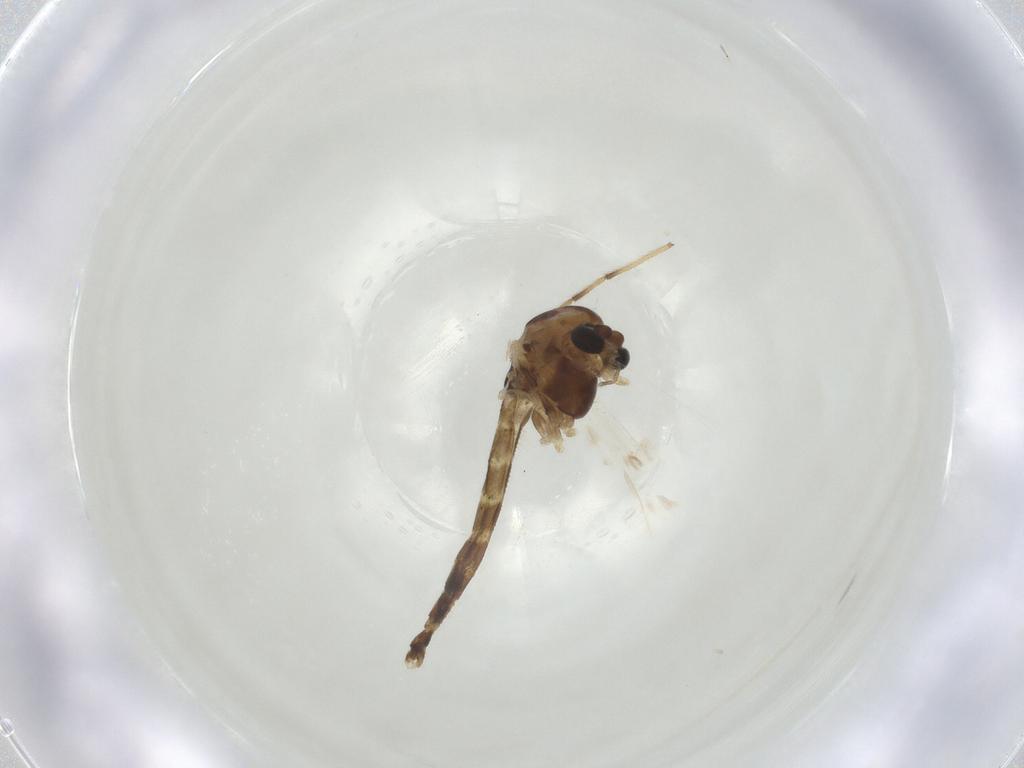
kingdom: Animalia
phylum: Arthropoda
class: Insecta
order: Diptera
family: Chironomidae
